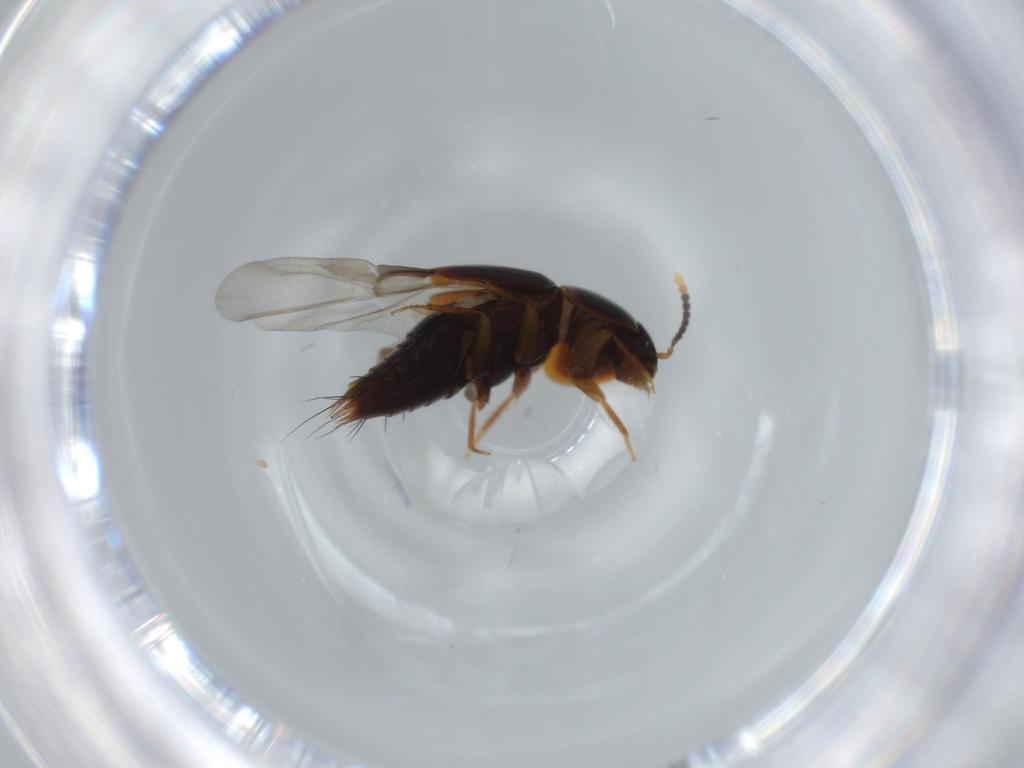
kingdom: Animalia
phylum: Arthropoda
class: Insecta
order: Coleoptera
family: Staphylinidae
